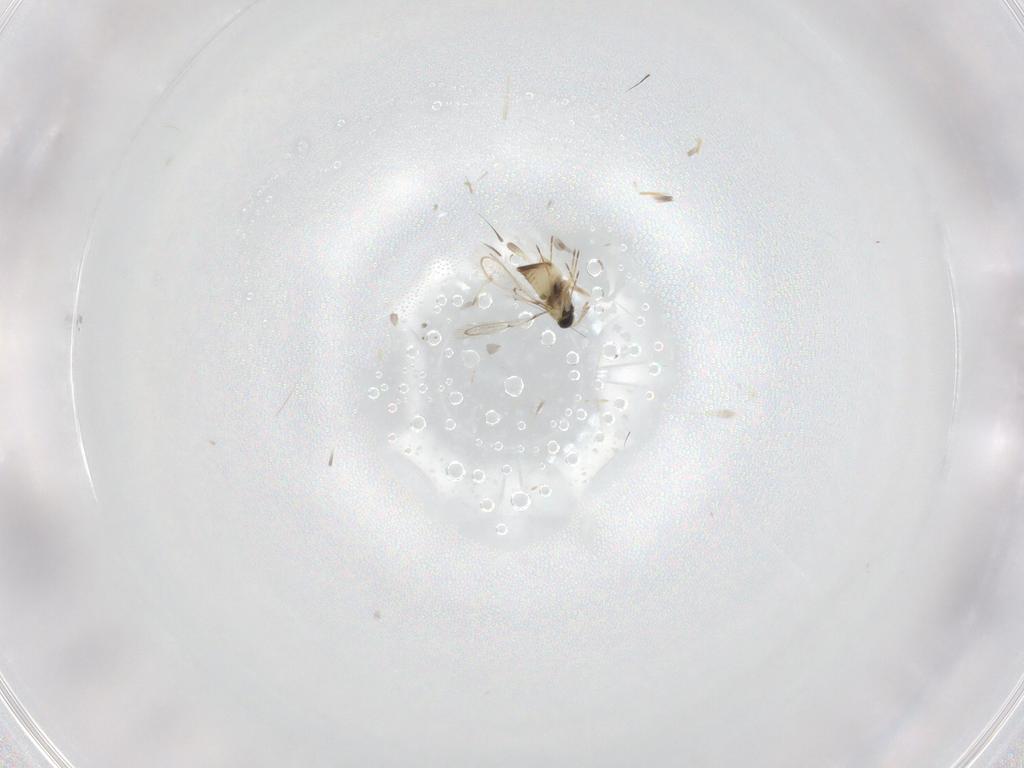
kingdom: Animalia
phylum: Arthropoda
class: Insecta
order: Hymenoptera
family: Trichogrammatidae
